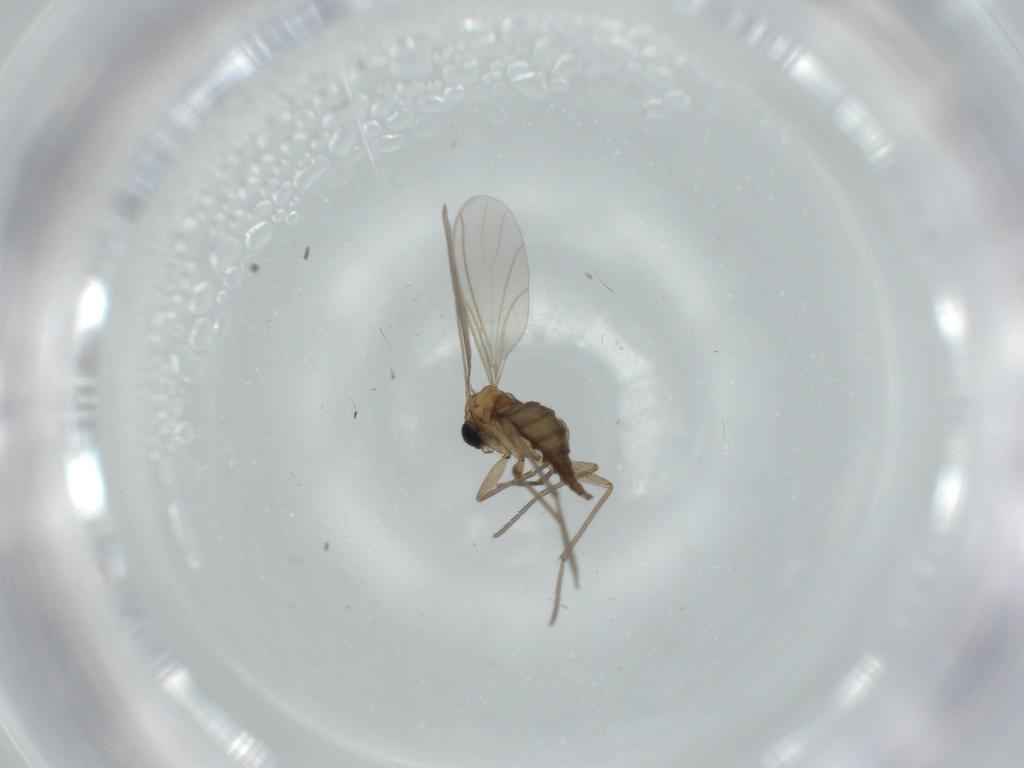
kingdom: Animalia
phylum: Arthropoda
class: Insecta
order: Diptera
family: Sciaridae
